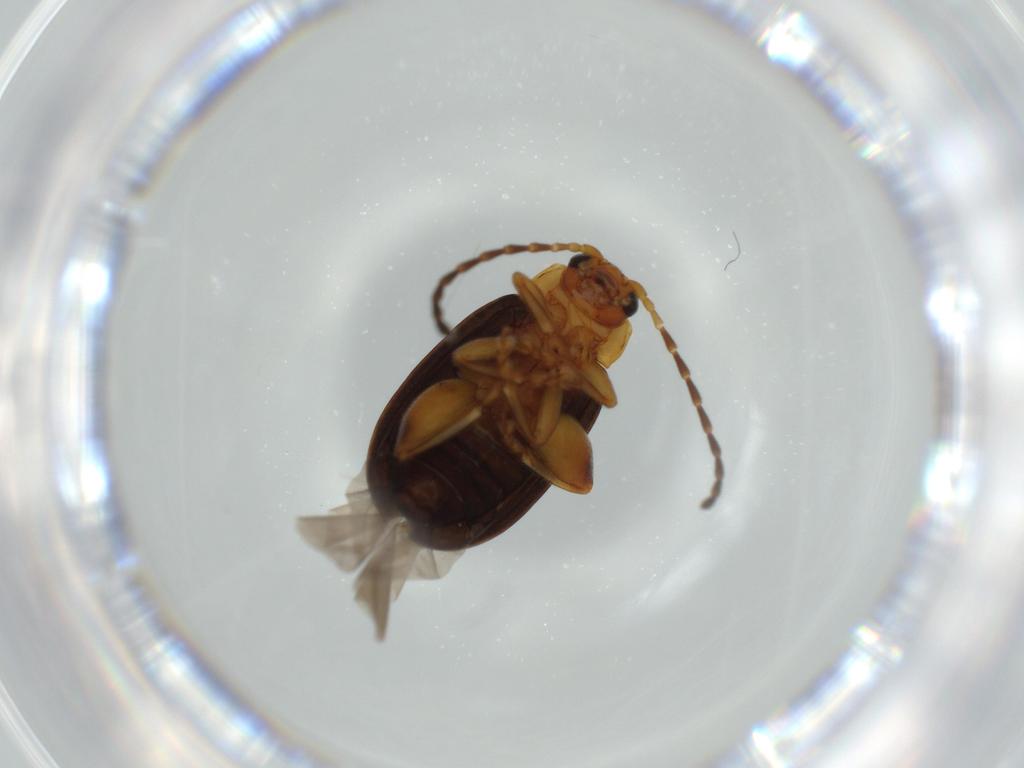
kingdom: Animalia
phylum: Arthropoda
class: Insecta
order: Coleoptera
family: Chrysomelidae
